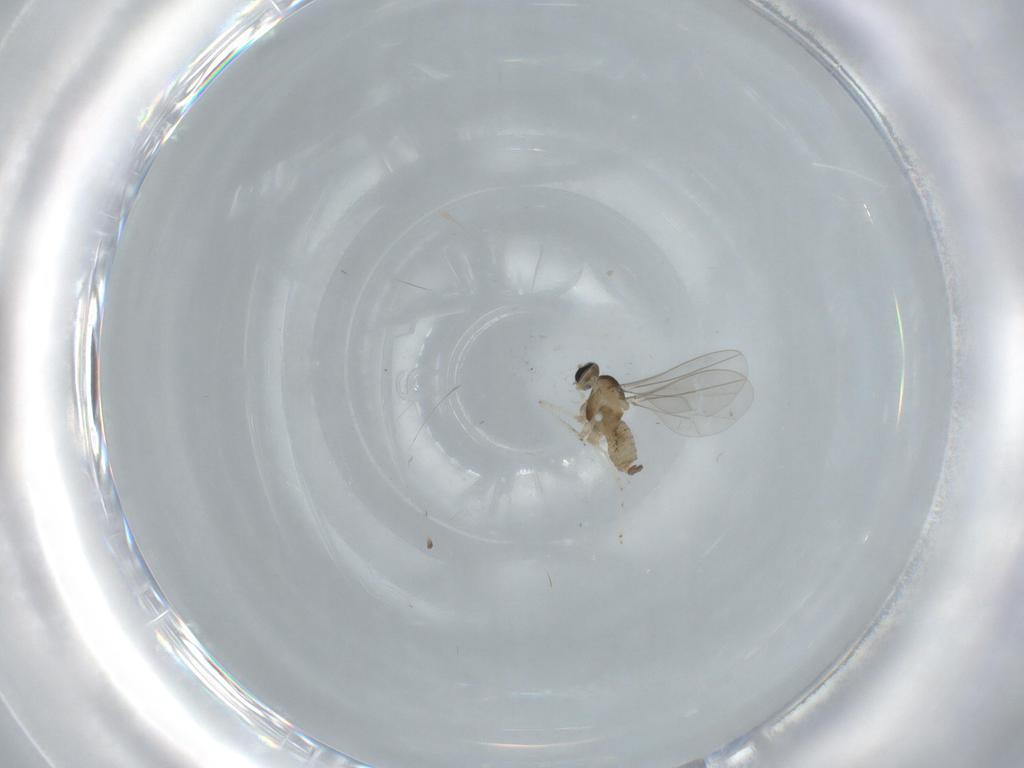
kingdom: Animalia
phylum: Arthropoda
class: Insecta
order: Diptera
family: Cecidomyiidae
